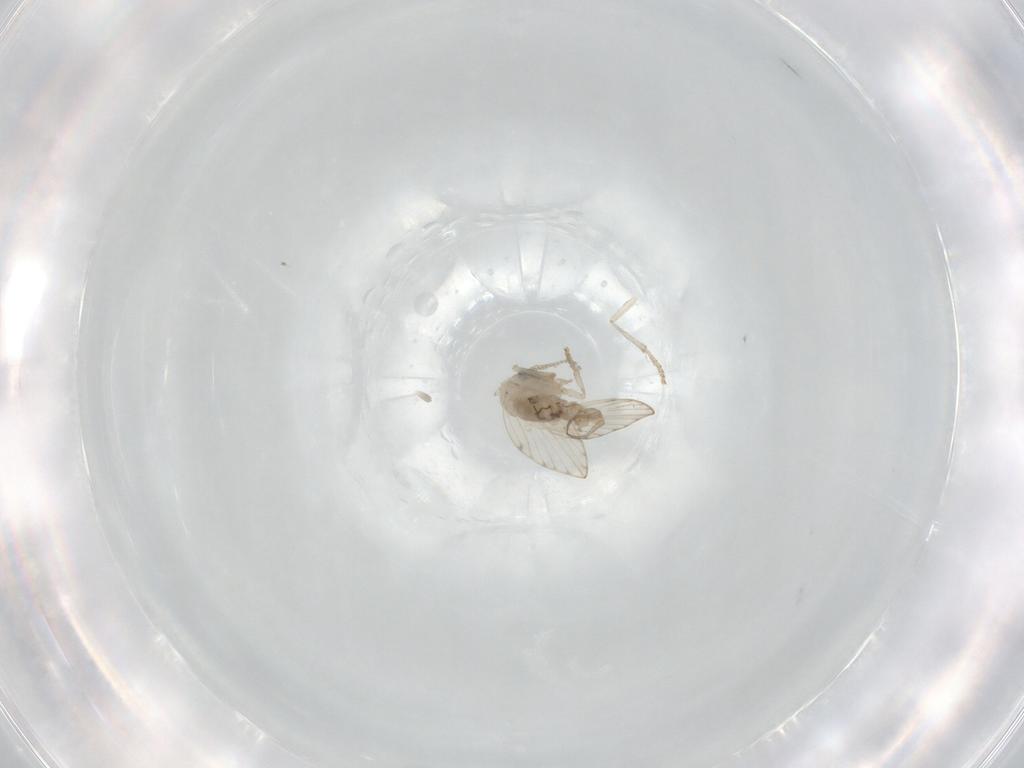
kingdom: Animalia
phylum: Arthropoda
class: Insecta
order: Diptera
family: Psychodidae
